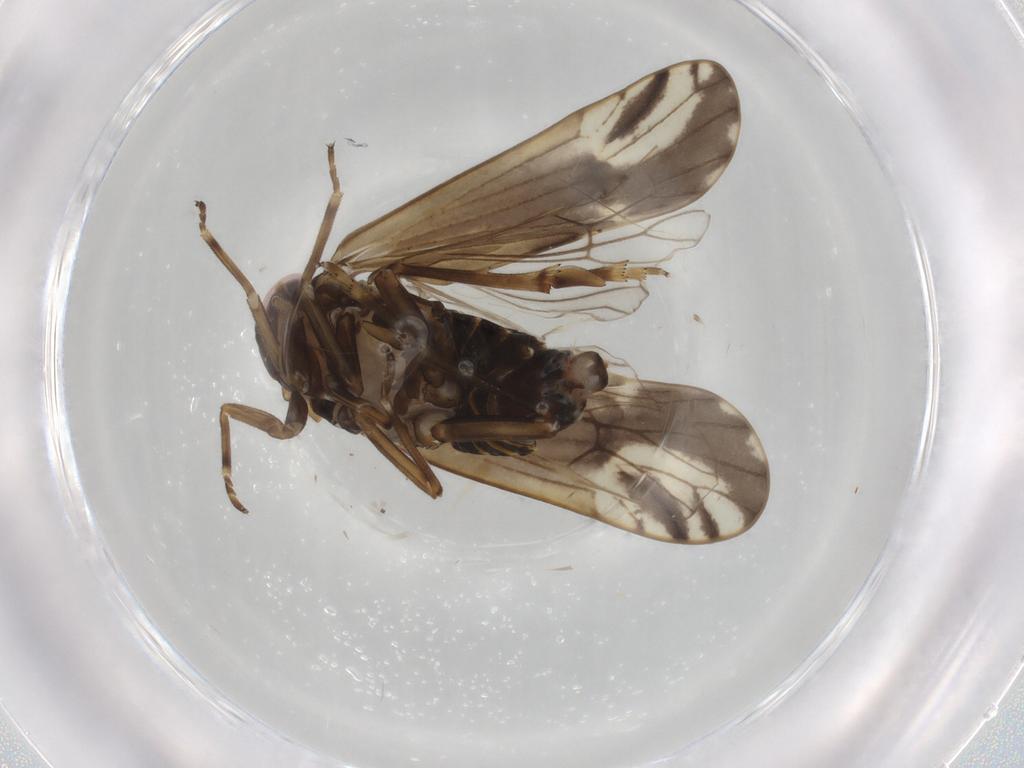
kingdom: Animalia
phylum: Arthropoda
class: Insecta
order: Hemiptera
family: Delphacidae
